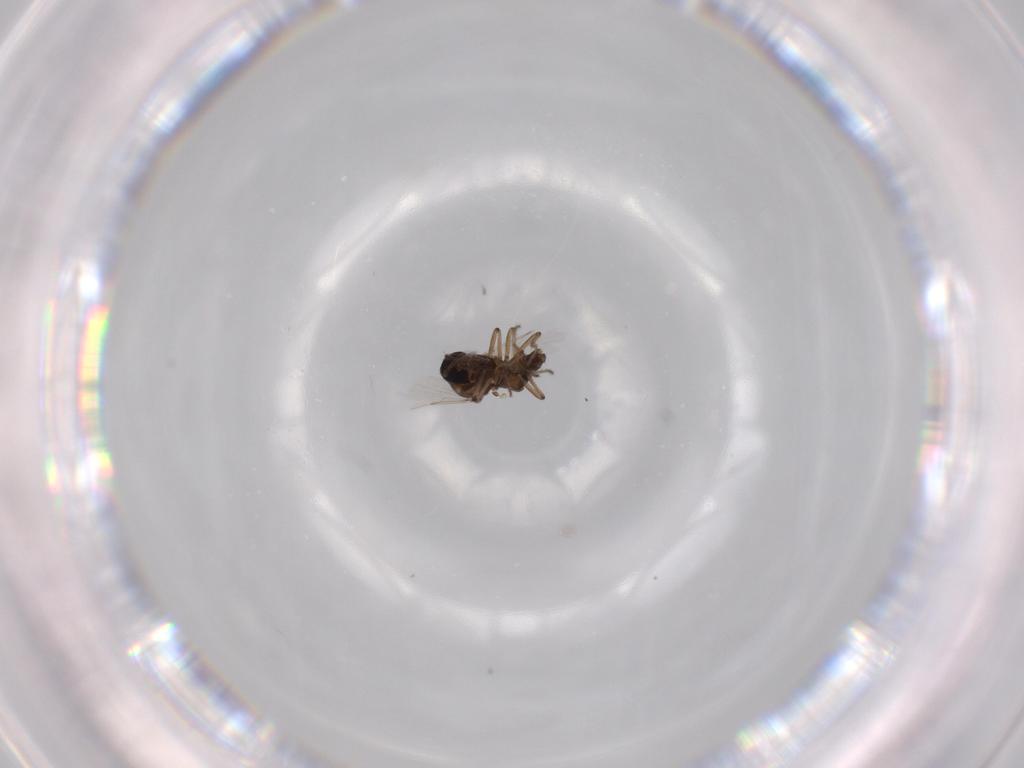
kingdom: Animalia
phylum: Arthropoda
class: Insecta
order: Diptera
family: Ceratopogonidae
